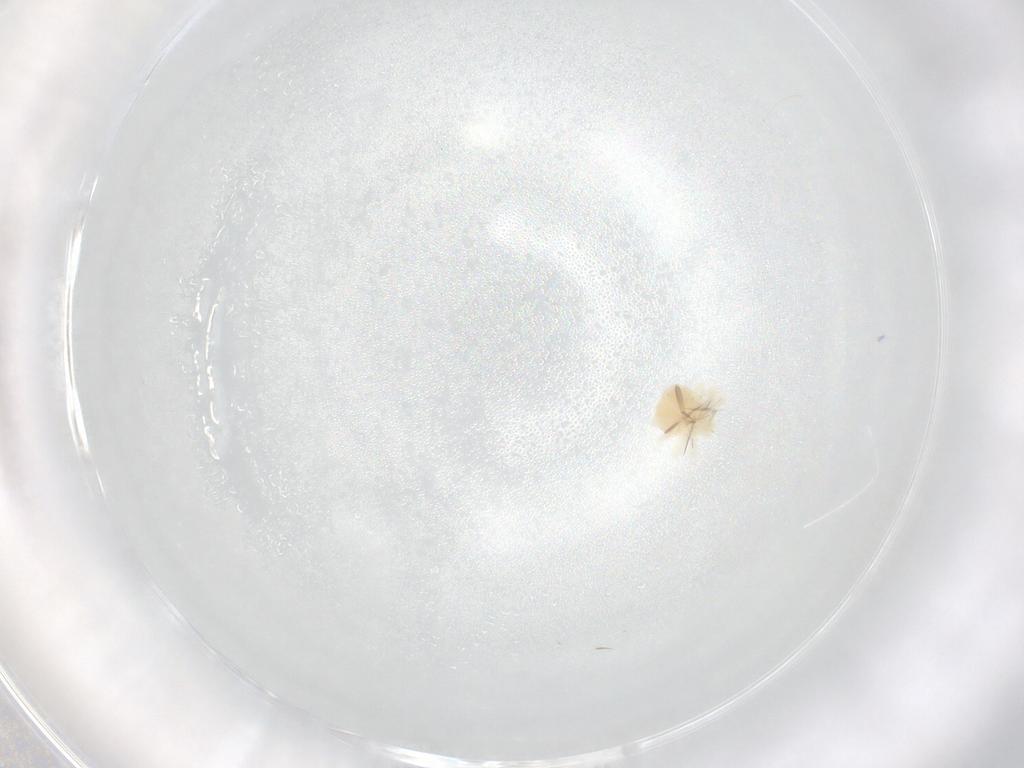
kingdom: Animalia
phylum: Arthropoda
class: Arachnida
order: Trombidiformes
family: Anystidae
